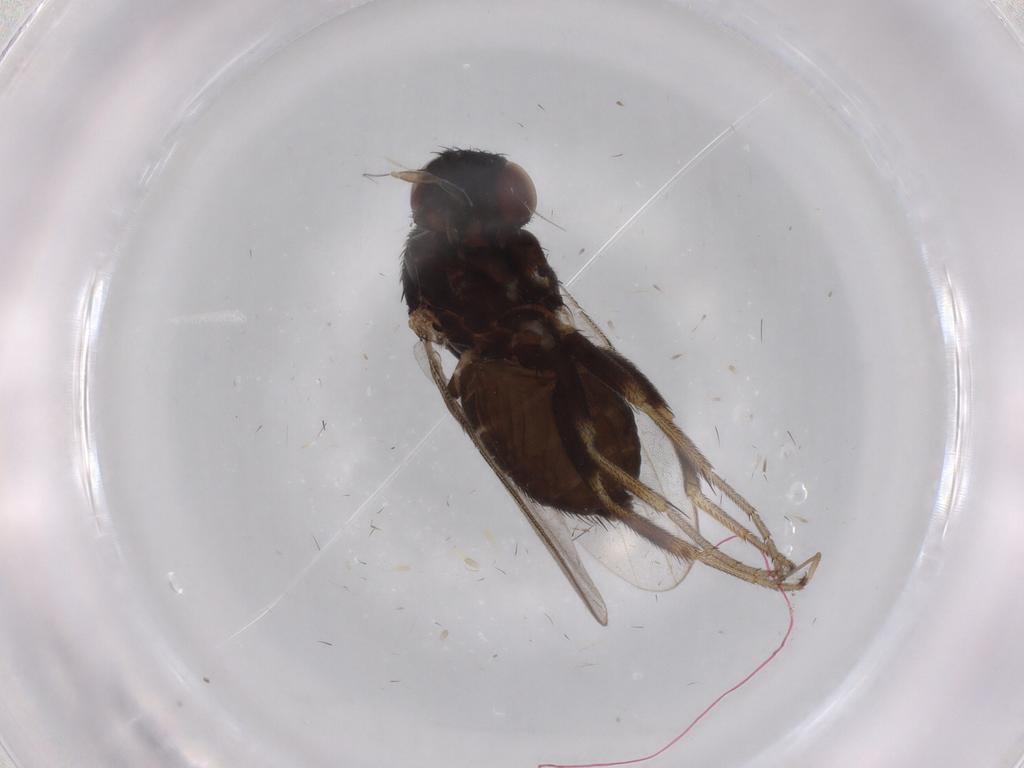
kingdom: Animalia
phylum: Arthropoda
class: Insecta
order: Diptera
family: Milichiidae
